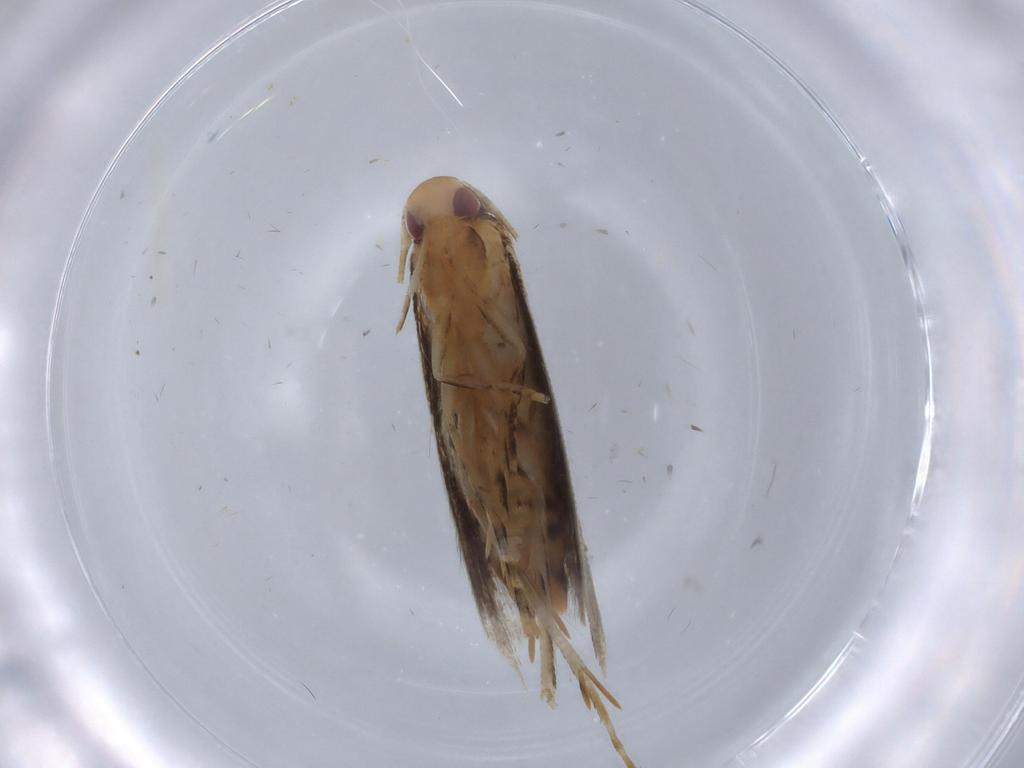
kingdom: Animalia
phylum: Arthropoda
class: Insecta
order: Lepidoptera
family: Momphidae
